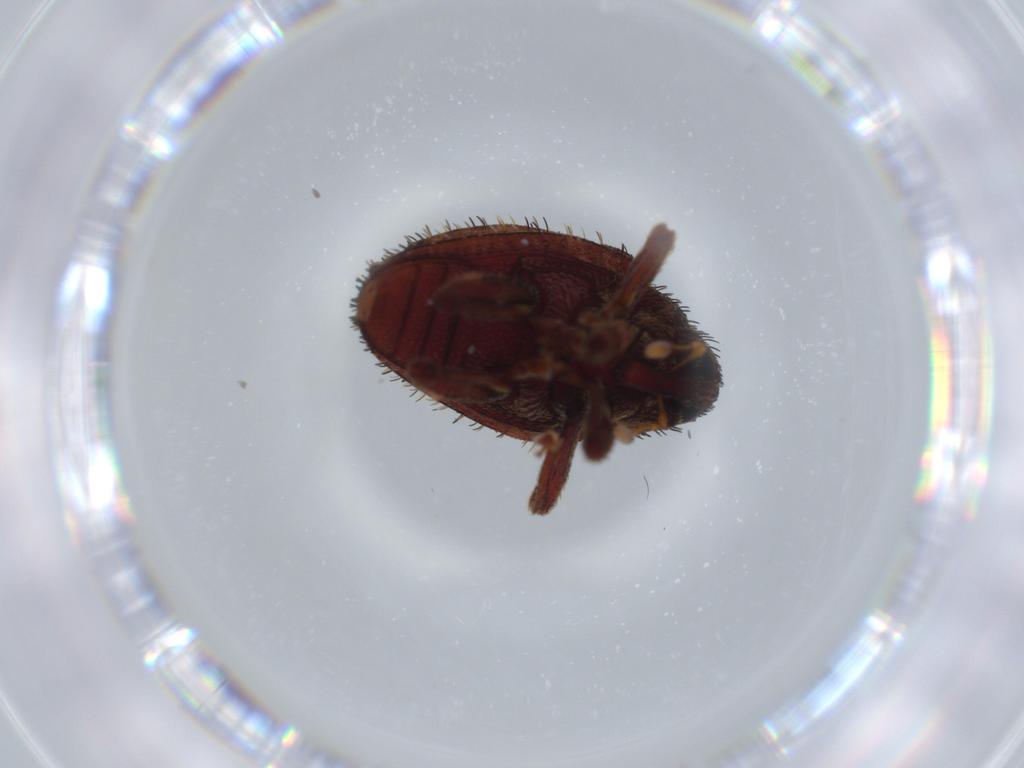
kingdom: Animalia
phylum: Arthropoda
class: Insecta
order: Coleoptera
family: Curculionidae
